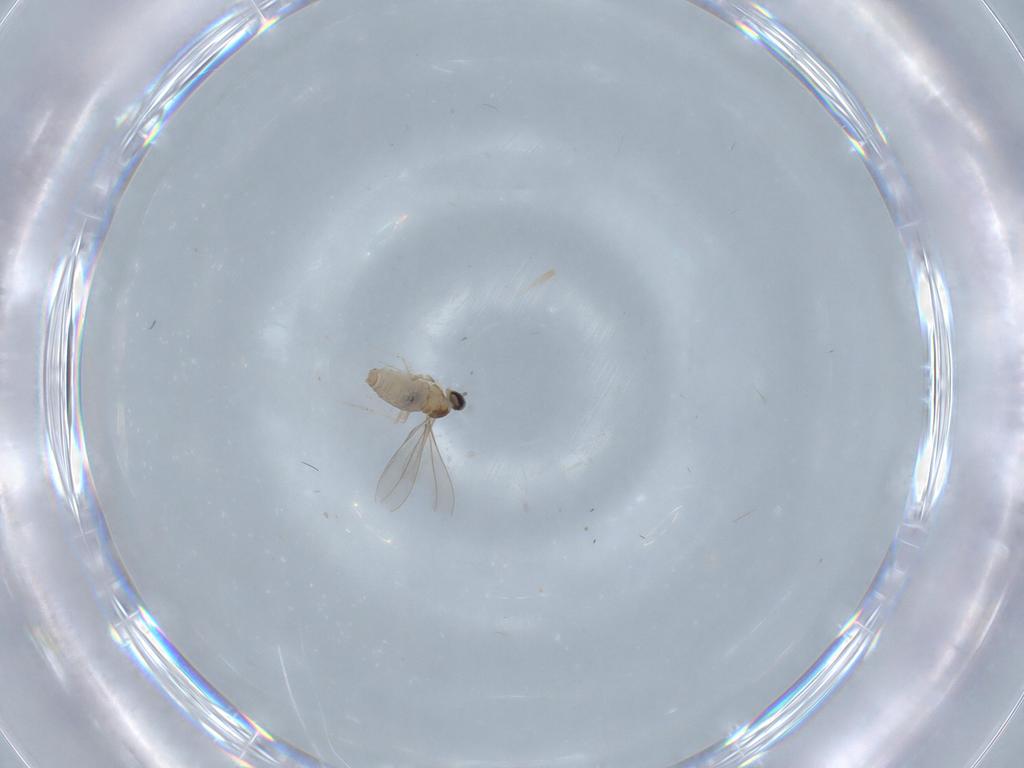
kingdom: Animalia
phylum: Arthropoda
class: Insecta
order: Diptera
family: Cecidomyiidae
